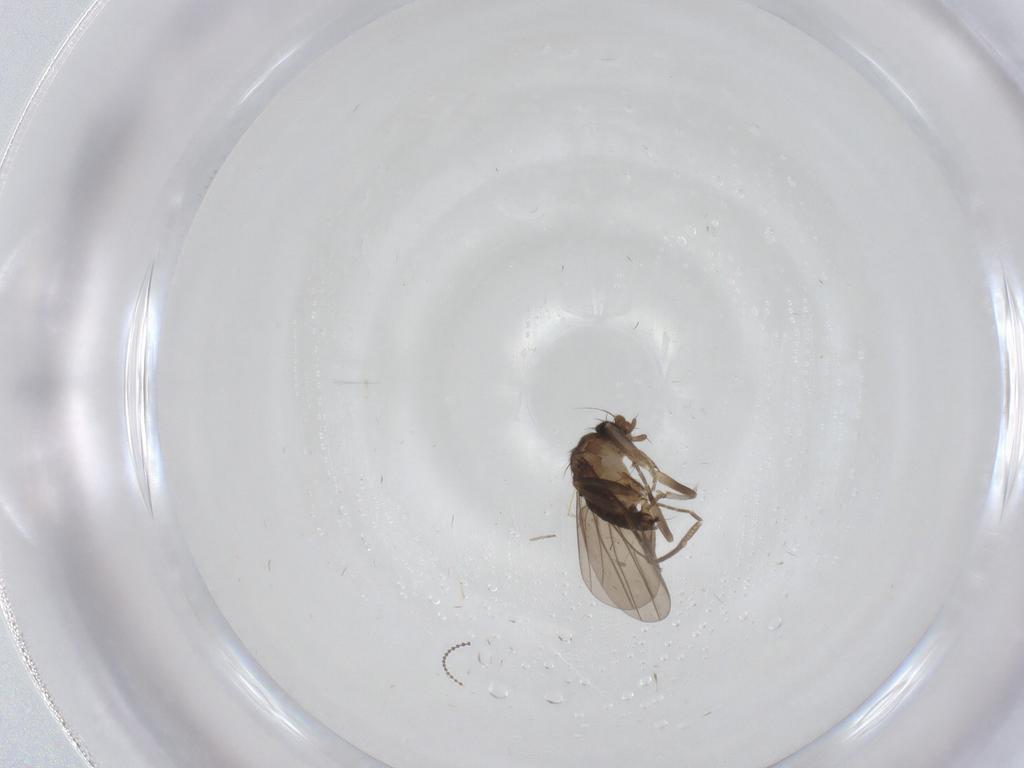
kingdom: Animalia
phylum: Arthropoda
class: Insecta
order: Diptera
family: Dolichopodidae
